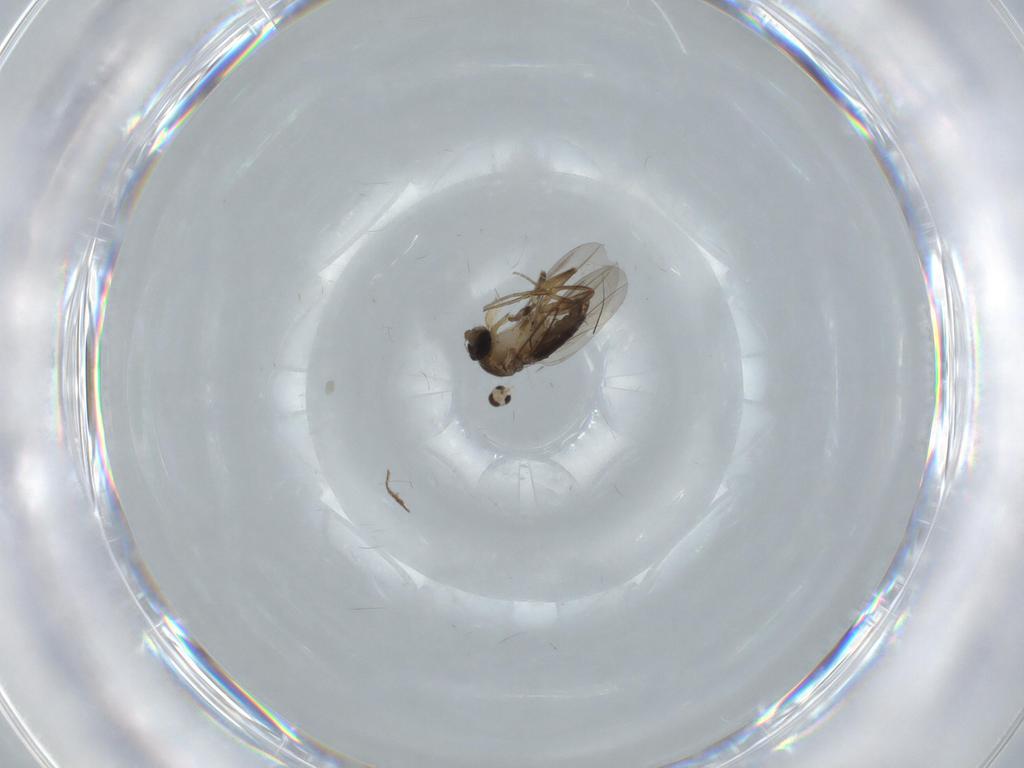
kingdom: Animalia
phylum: Arthropoda
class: Insecta
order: Diptera
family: Phoridae
